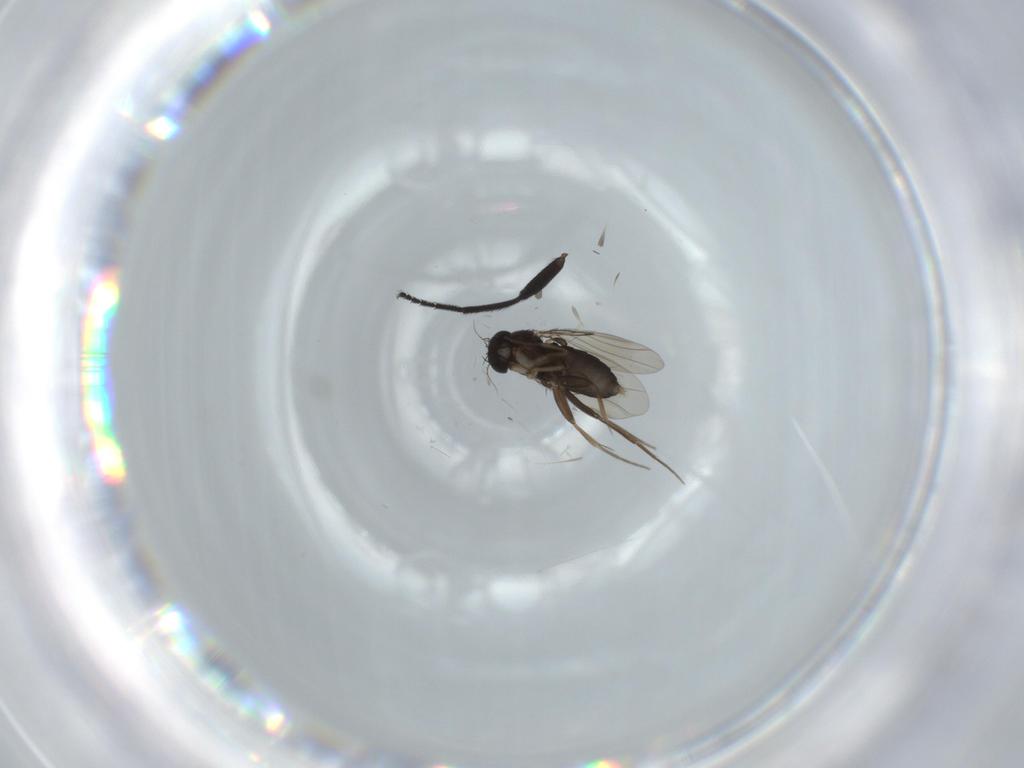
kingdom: Animalia
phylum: Arthropoda
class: Insecta
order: Diptera
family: Phoridae
